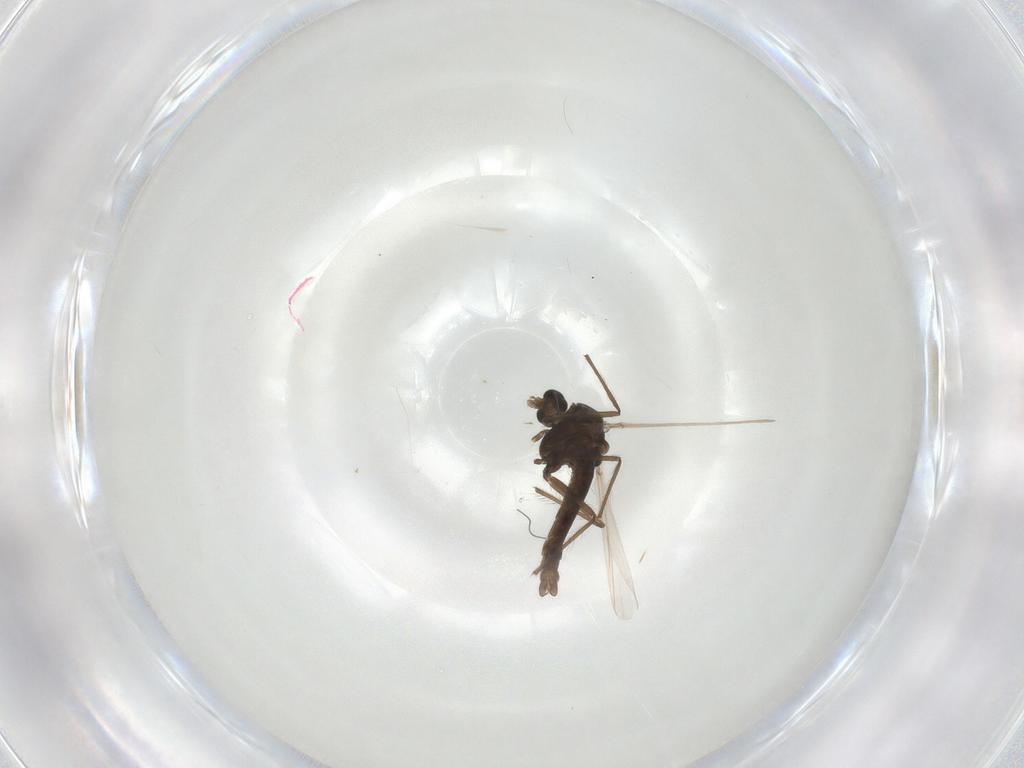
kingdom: Animalia
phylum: Arthropoda
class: Insecta
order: Diptera
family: Chironomidae
